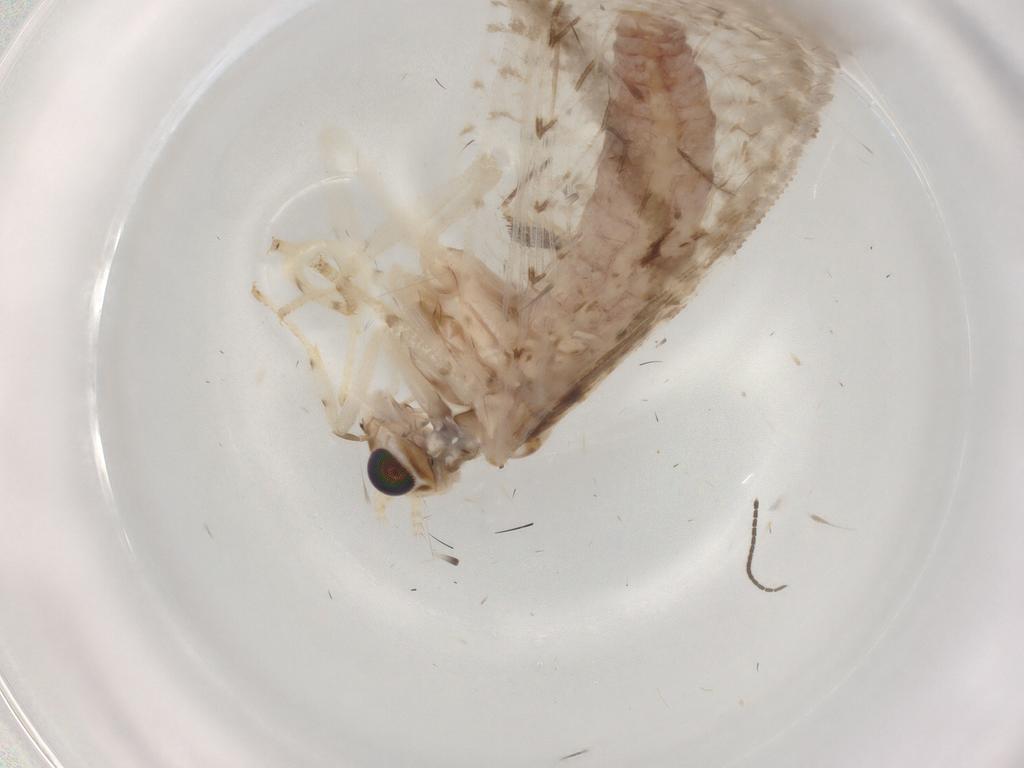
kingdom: Animalia
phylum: Arthropoda
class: Insecta
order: Neuroptera
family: Hemerobiidae
